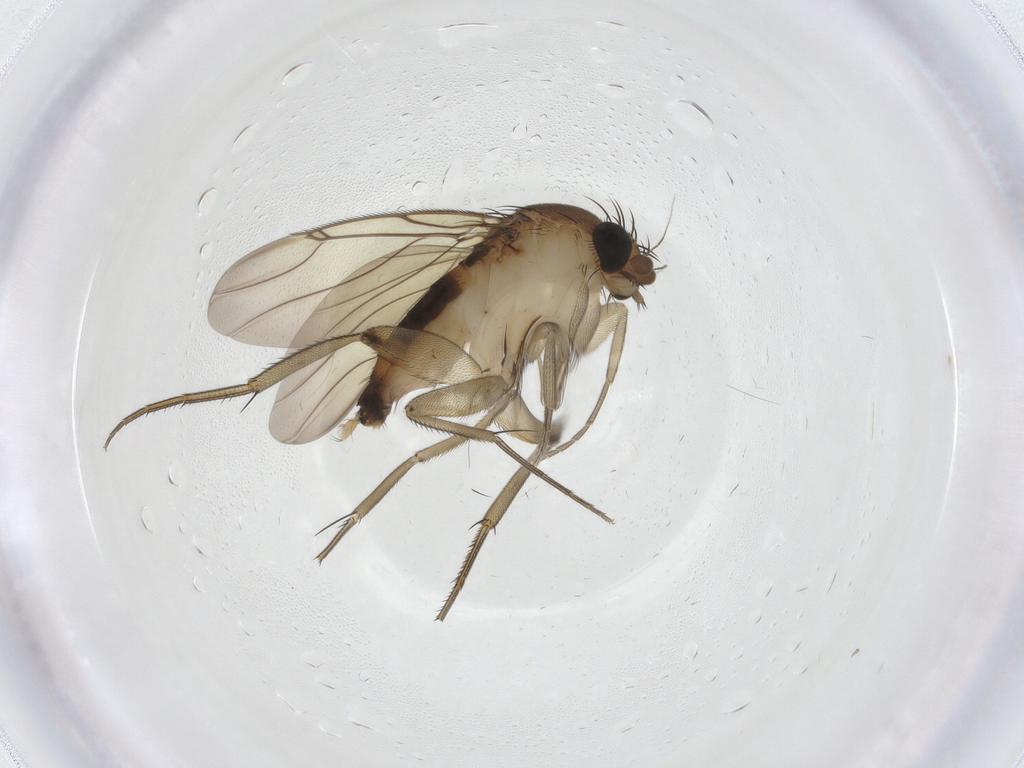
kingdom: Animalia
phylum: Arthropoda
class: Insecta
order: Diptera
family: Phoridae
